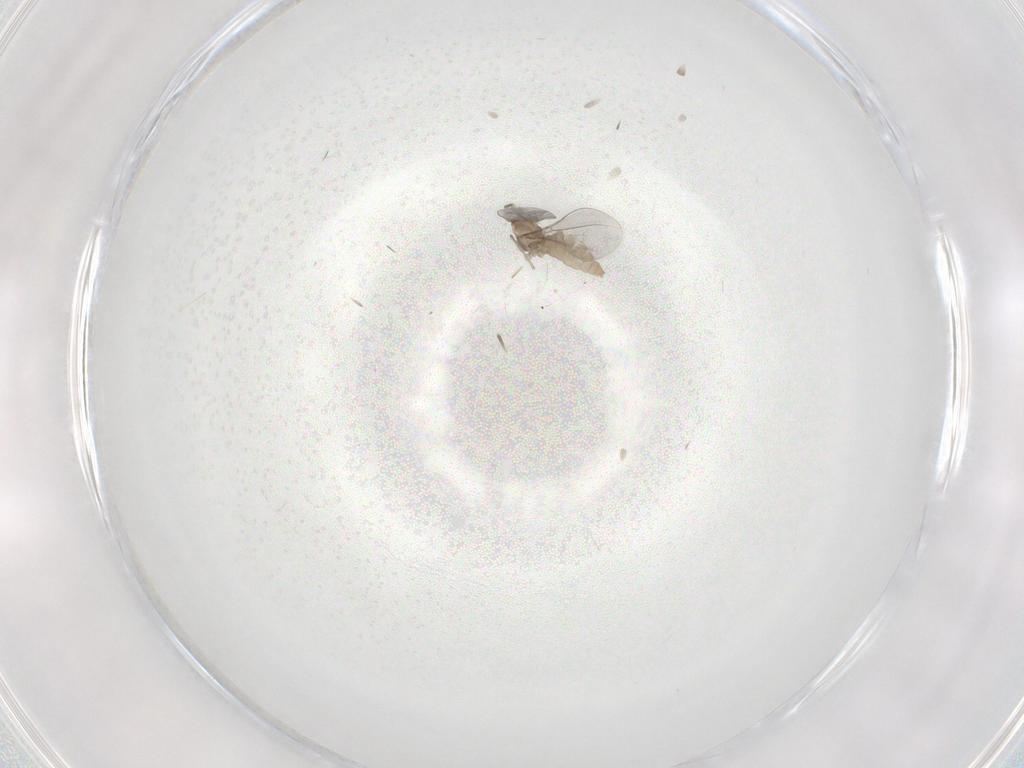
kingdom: Animalia
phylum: Arthropoda
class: Insecta
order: Diptera
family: Cecidomyiidae
